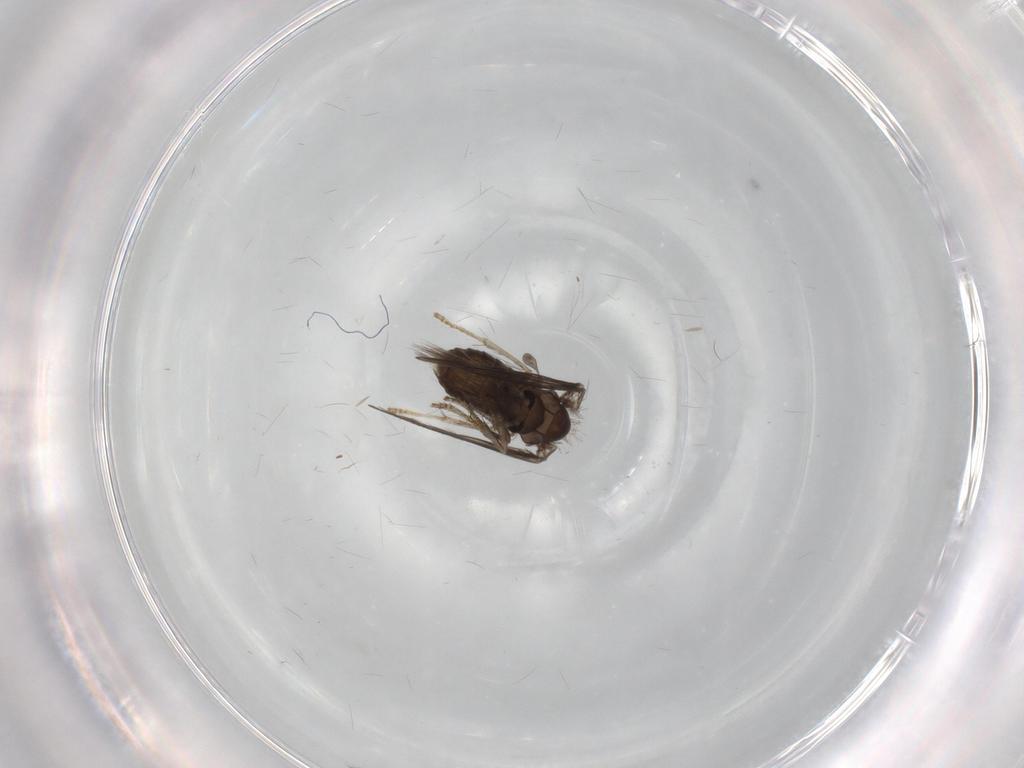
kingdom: Animalia
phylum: Arthropoda
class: Insecta
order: Diptera
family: Psychodidae
